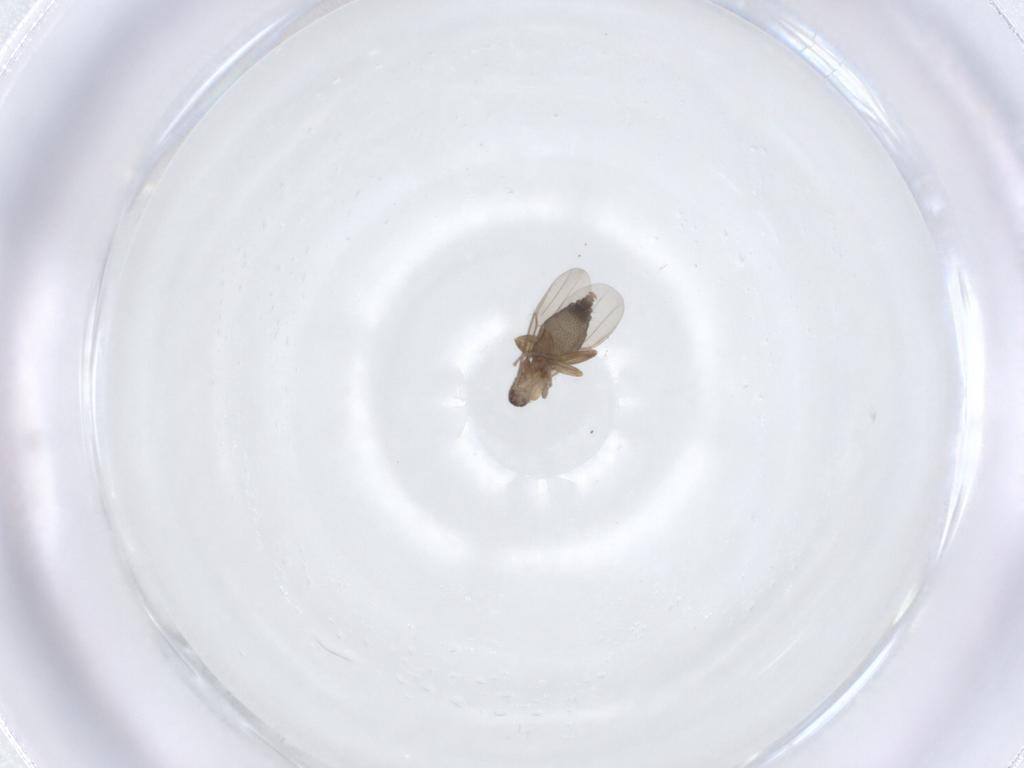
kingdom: Animalia
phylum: Arthropoda
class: Insecta
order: Diptera
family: Phoridae
